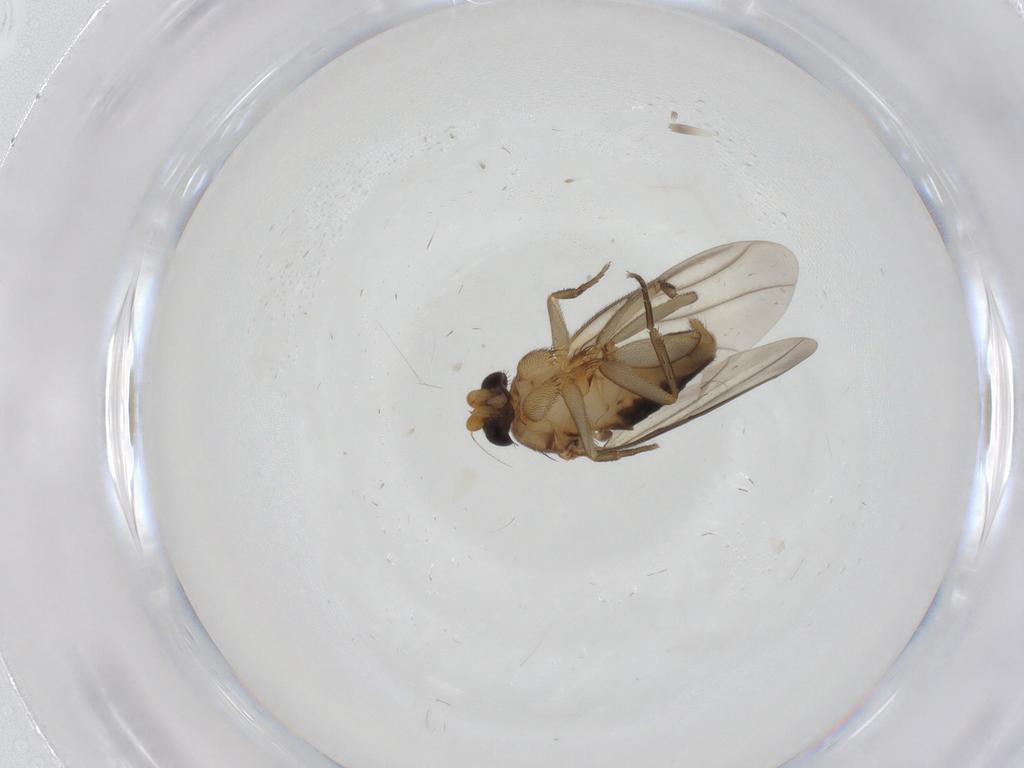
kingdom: Animalia
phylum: Arthropoda
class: Insecta
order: Diptera
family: Phoridae
